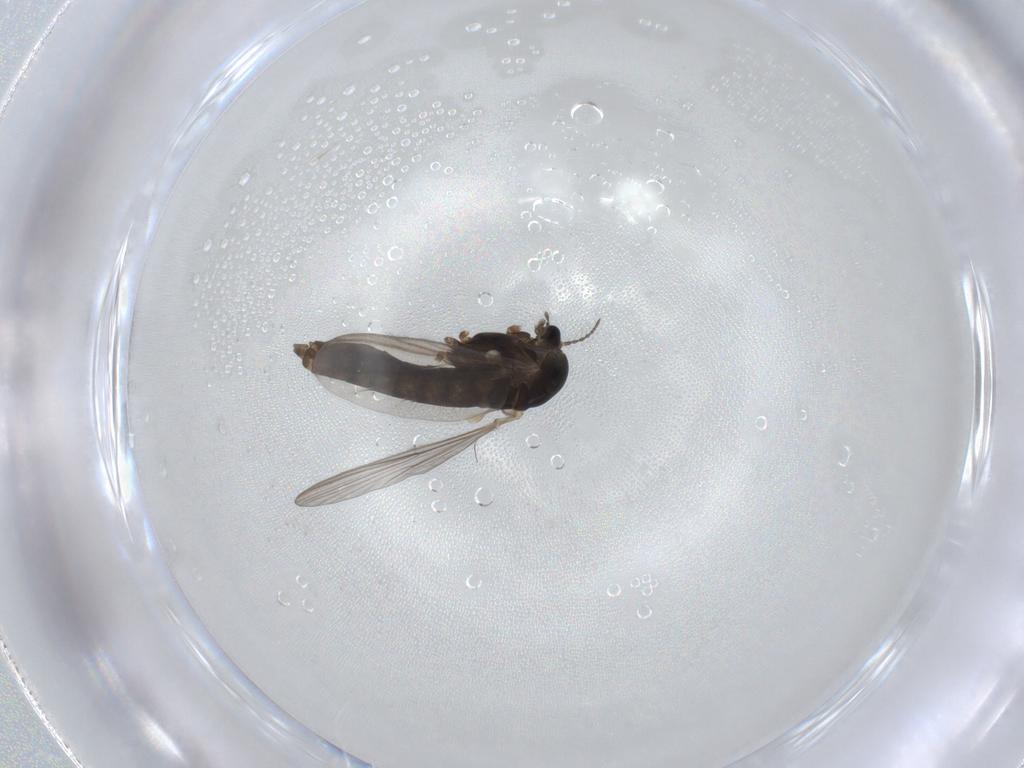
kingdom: Animalia
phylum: Arthropoda
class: Insecta
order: Diptera
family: Chironomidae
